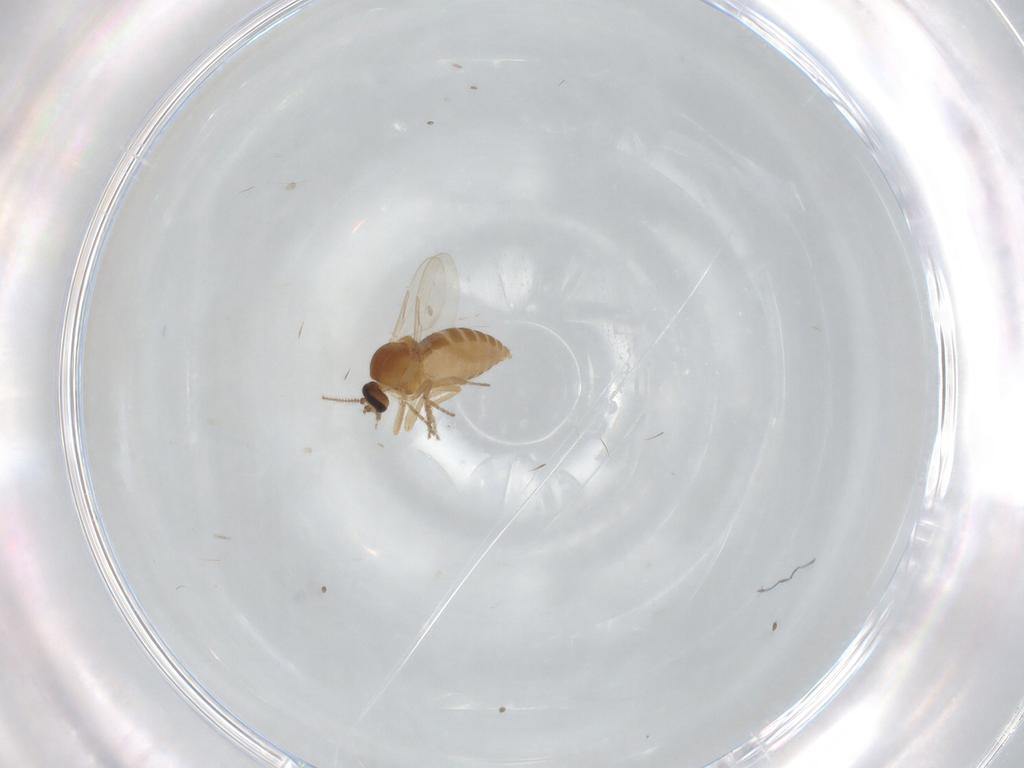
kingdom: Animalia
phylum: Arthropoda
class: Insecta
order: Diptera
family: Ceratopogonidae
